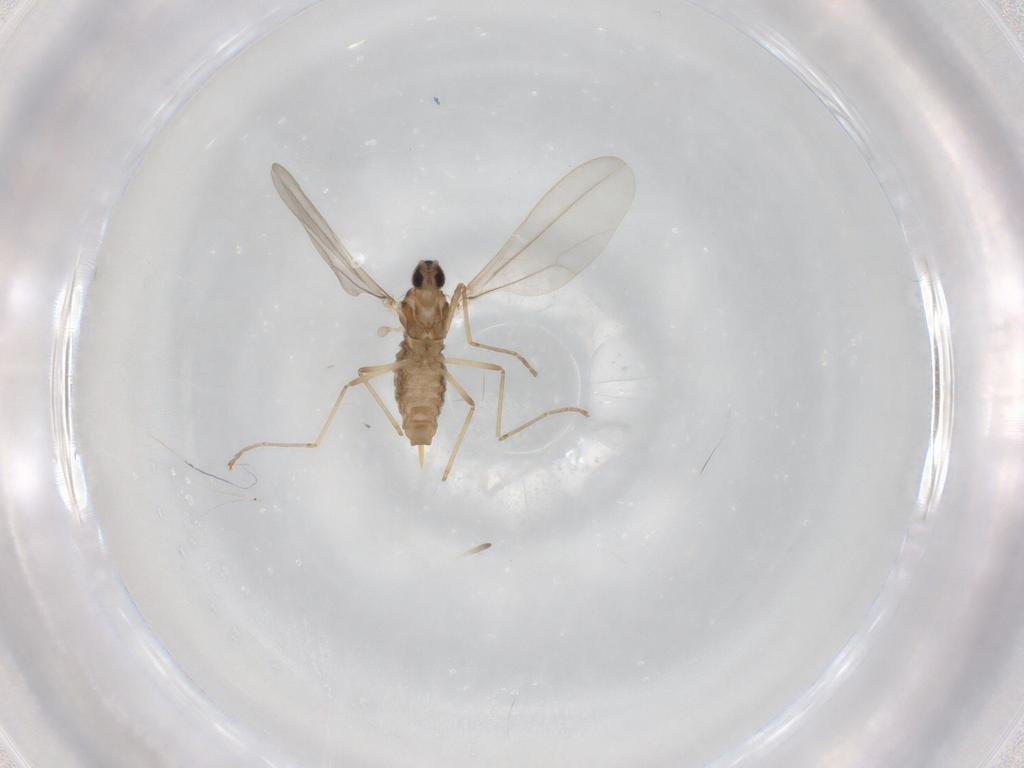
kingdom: Animalia
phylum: Arthropoda
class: Insecta
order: Diptera
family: Cecidomyiidae
